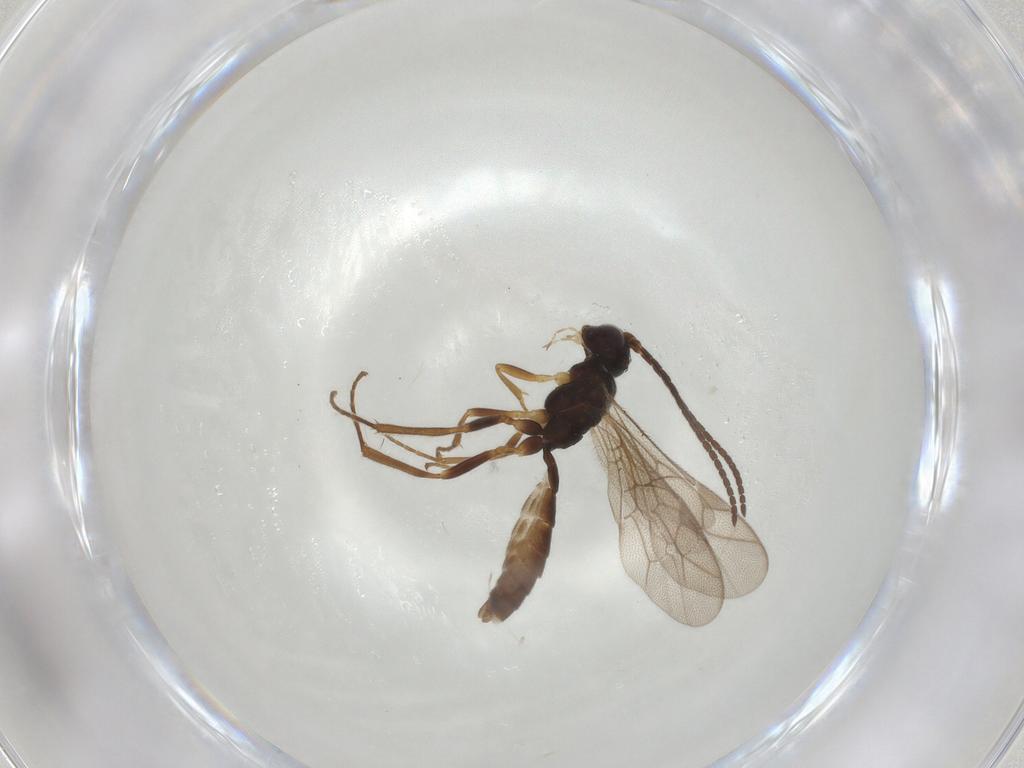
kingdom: Animalia
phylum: Arthropoda
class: Insecta
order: Hymenoptera
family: Ichneumonidae
